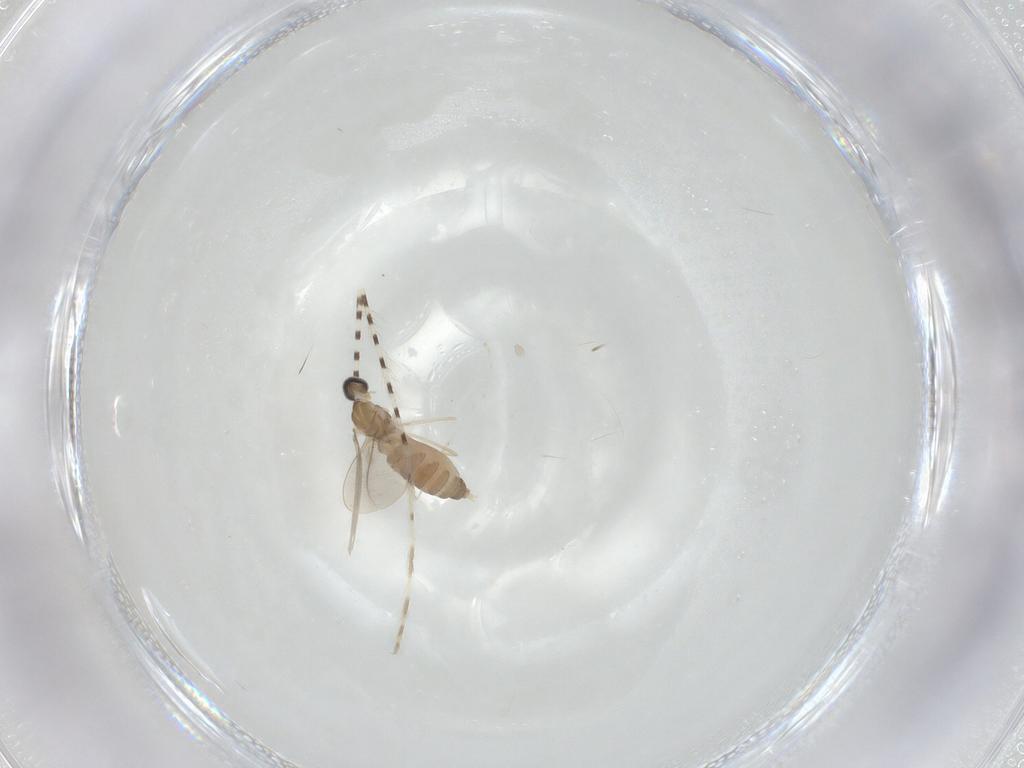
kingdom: Animalia
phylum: Arthropoda
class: Insecta
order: Diptera
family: Cecidomyiidae
